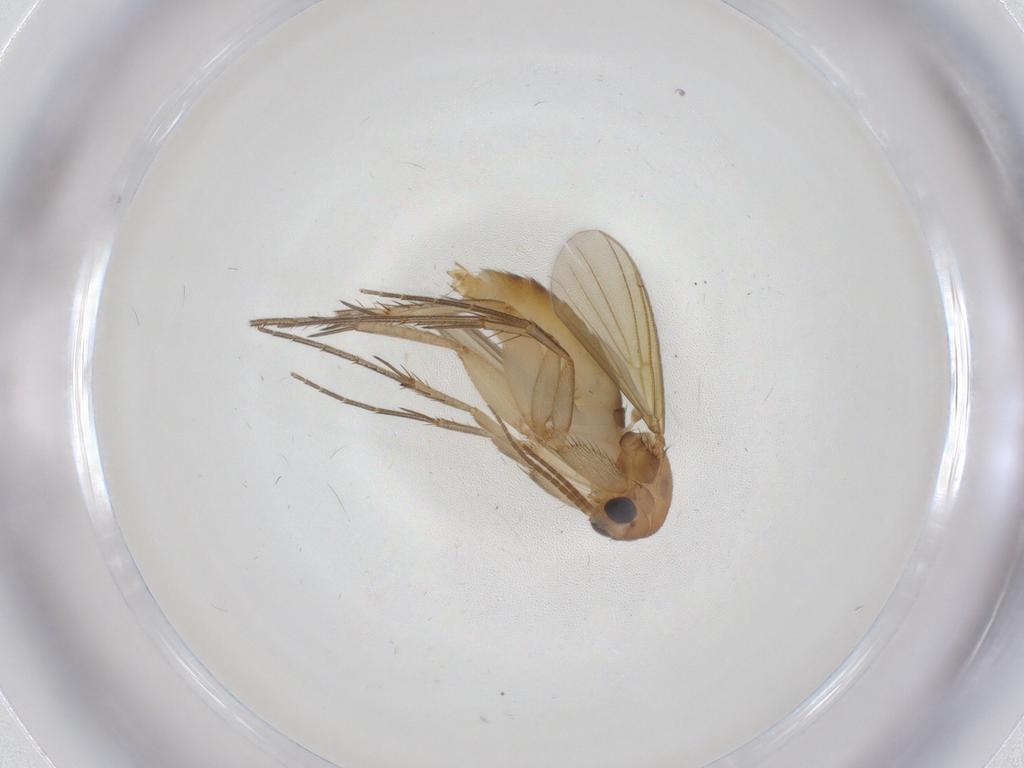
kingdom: Animalia
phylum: Arthropoda
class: Insecta
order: Diptera
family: Mycetophilidae
